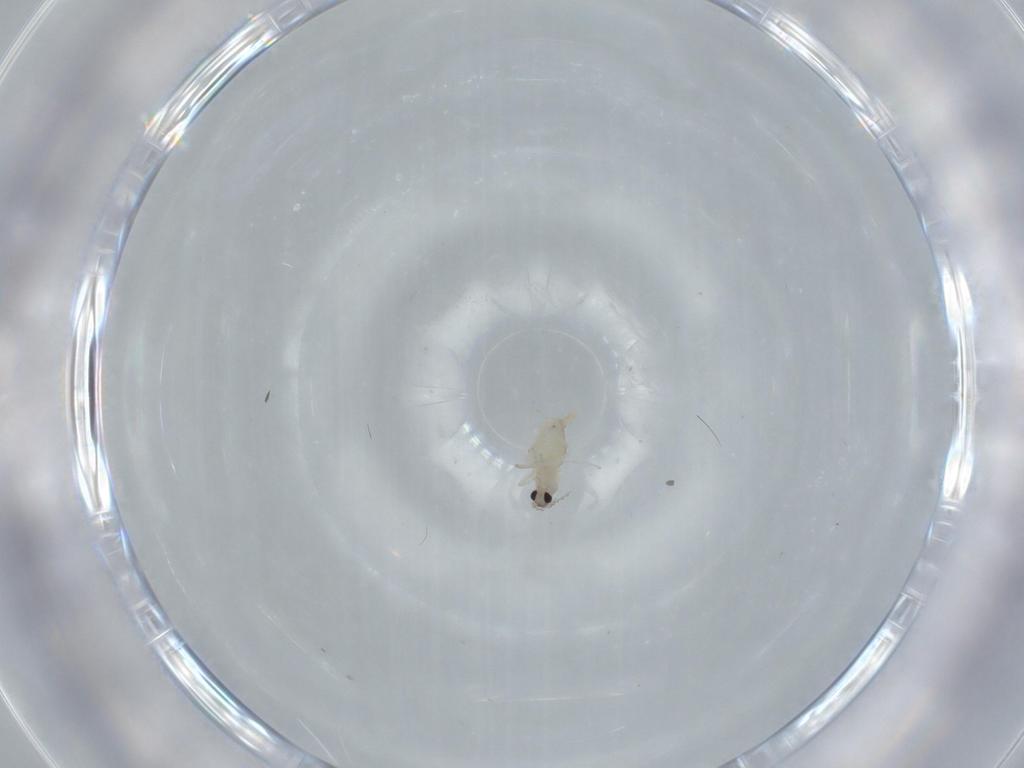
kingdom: Animalia
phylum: Arthropoda
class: Insecta
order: Diptera
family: Cecidomyiidae
